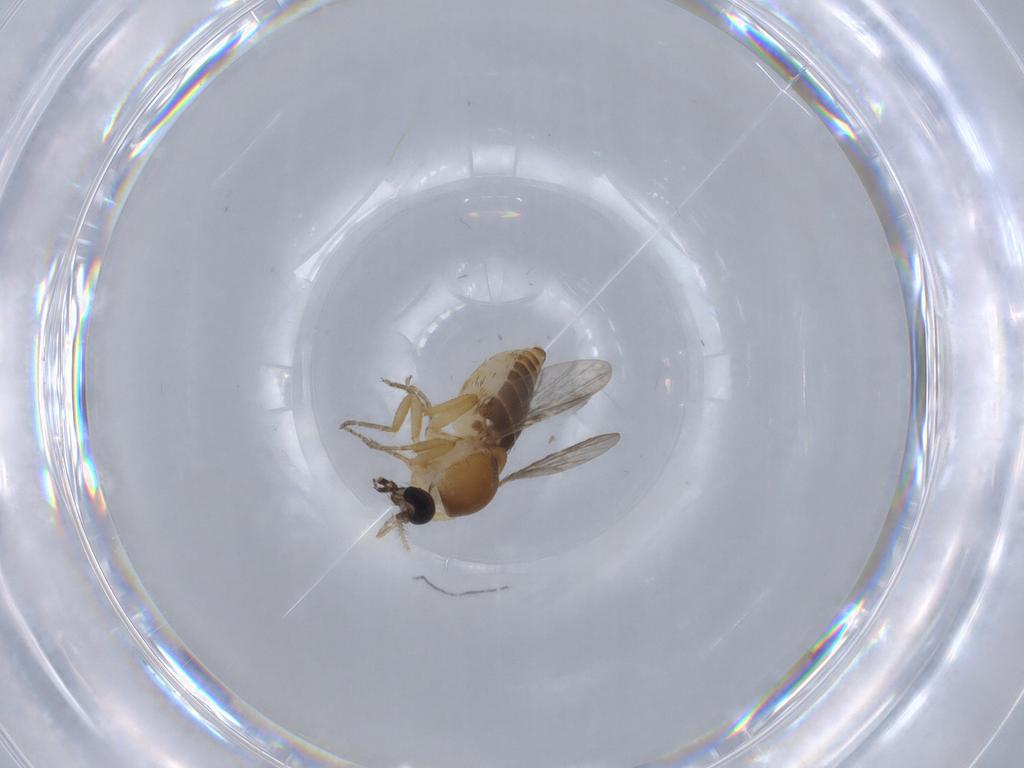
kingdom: Animalia
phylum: Arthropoda
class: Insecta
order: Diptera
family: Ceratopogonidae
